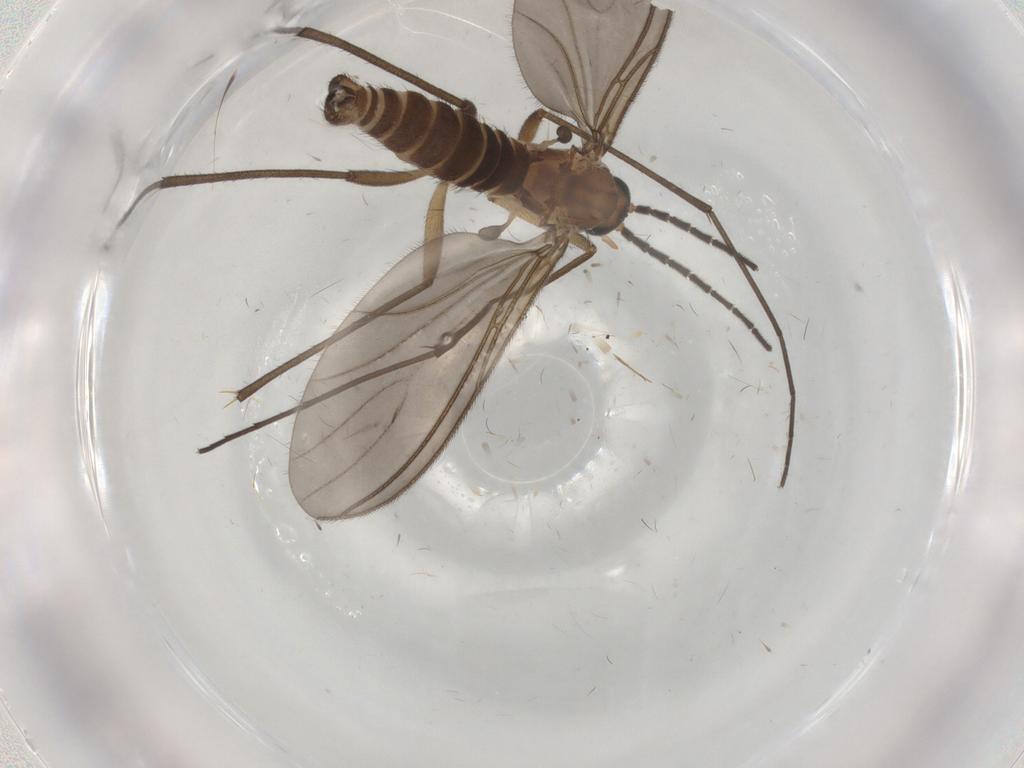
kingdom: Animalia
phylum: Arthropoda
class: Insecta
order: Diptera
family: Sciaridae
